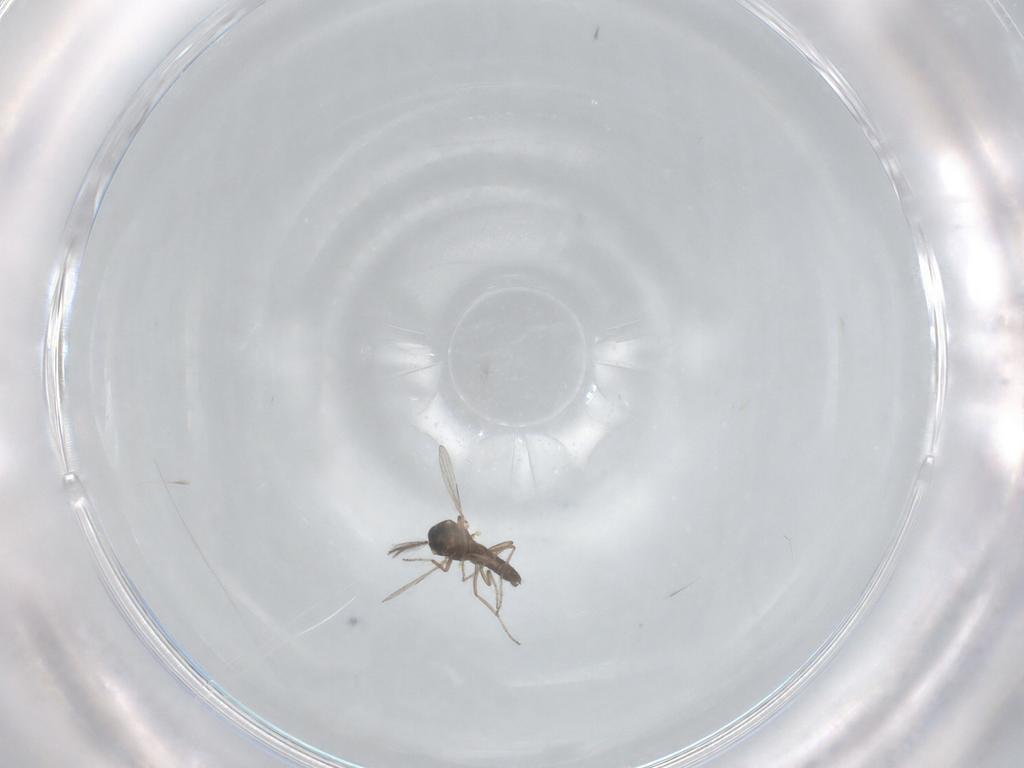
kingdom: Animalia
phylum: Arthropoda
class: Insecta
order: Diptera
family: Ceratopogonidae
